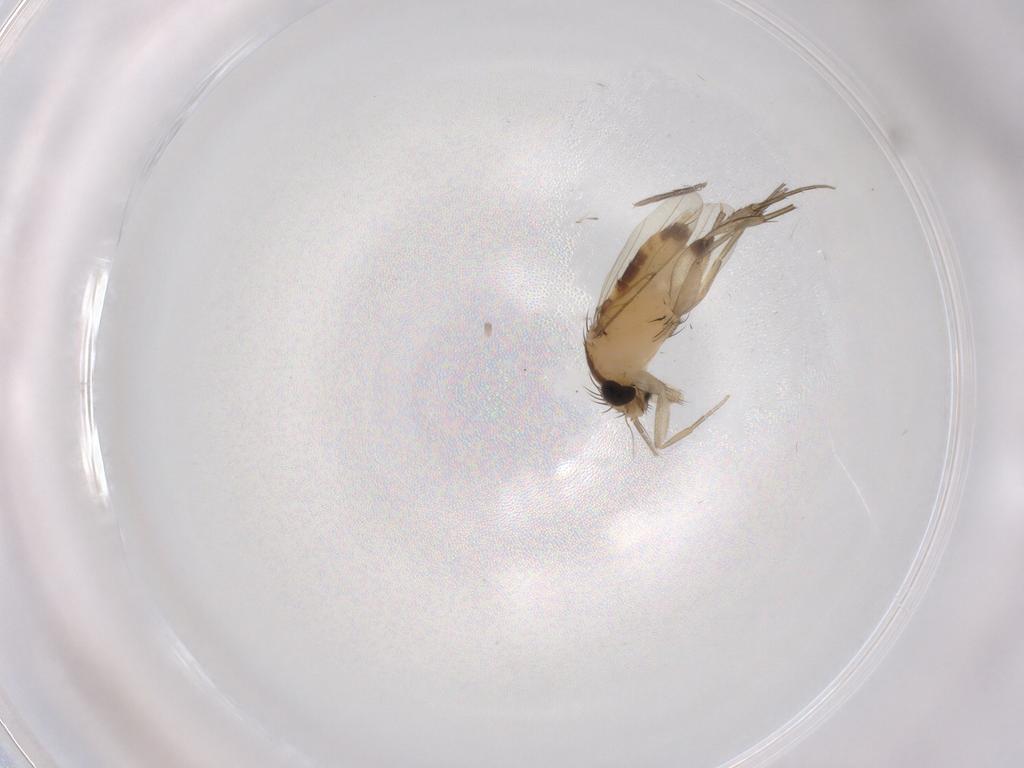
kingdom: Animalia
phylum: Arthropoda
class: Insecta
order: Diptera
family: Phoridae
